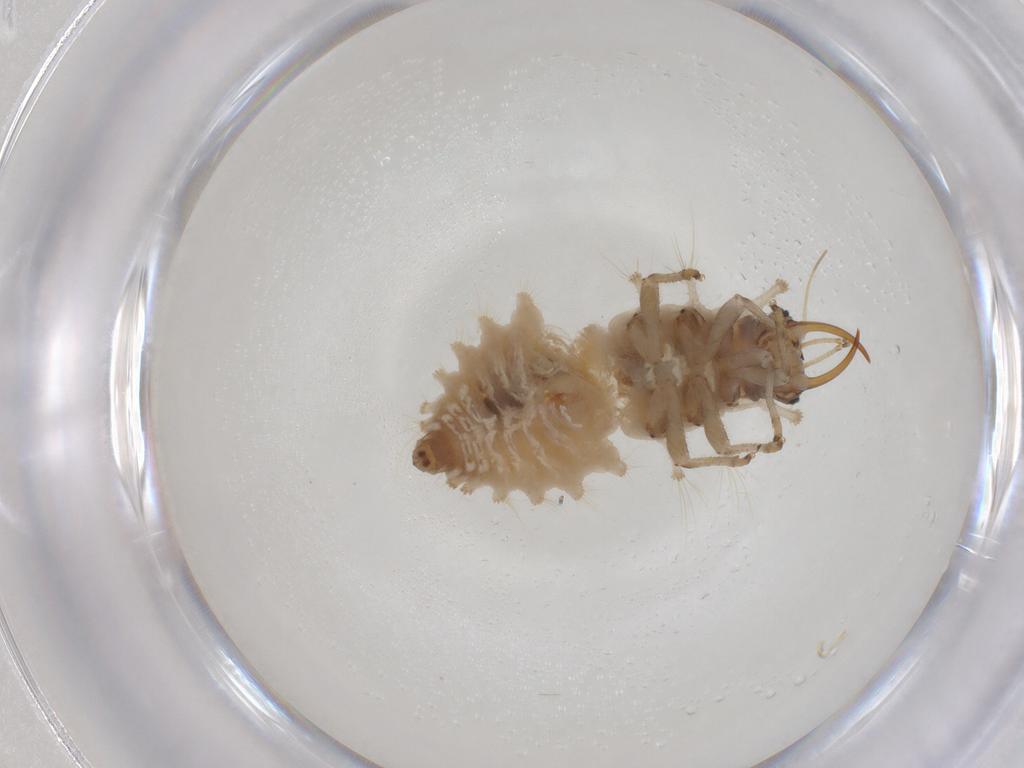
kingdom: Animalia
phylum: Arthropoda
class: Insecta
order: Neuroptera
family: Chrysopidae
